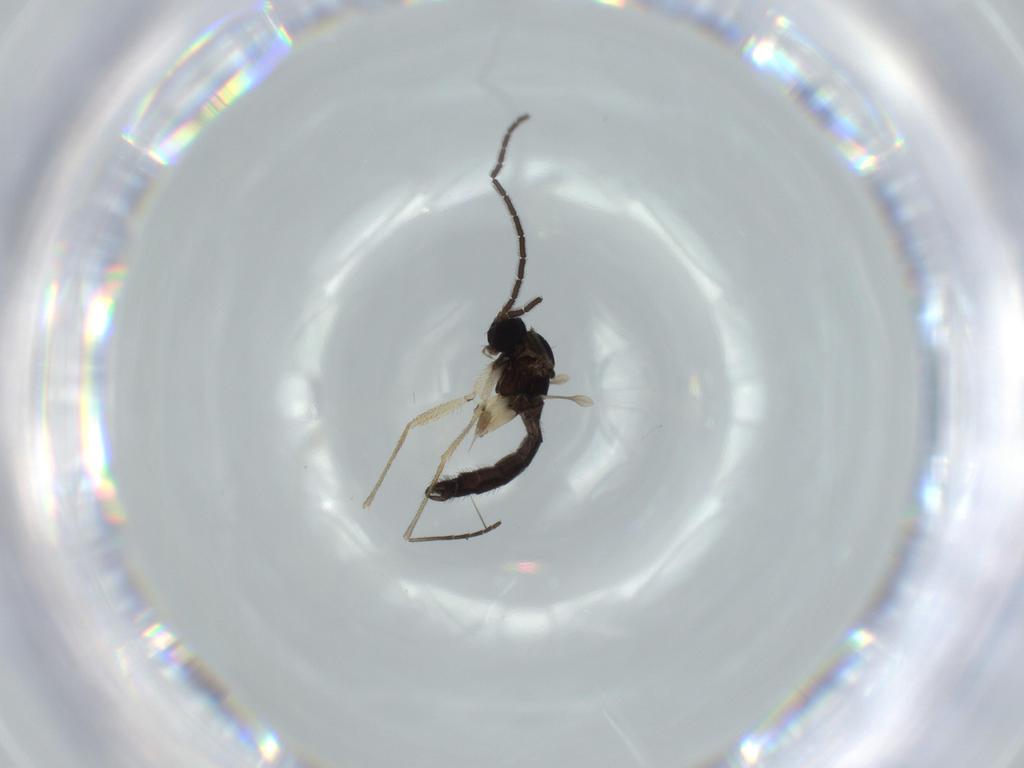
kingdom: Animalia
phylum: Arthropoda
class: Insecta
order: Diptera
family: Sciaridae
